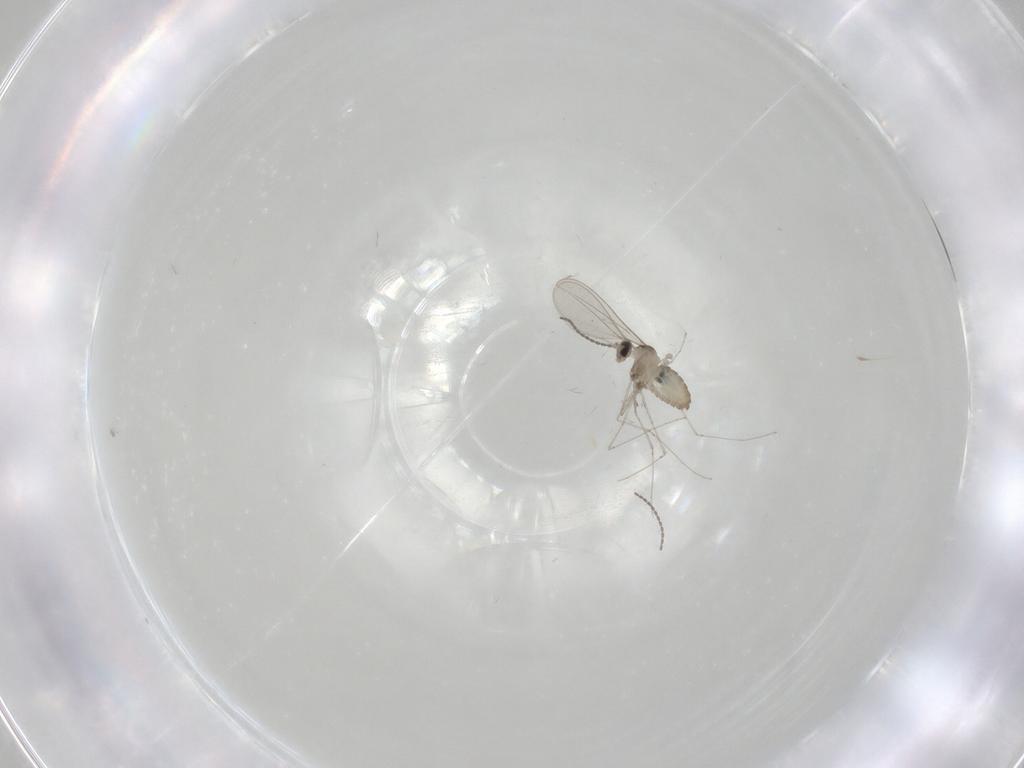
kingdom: Animalia
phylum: Arthropoda
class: Insecta
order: Diptera
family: Cecidomyiidae
